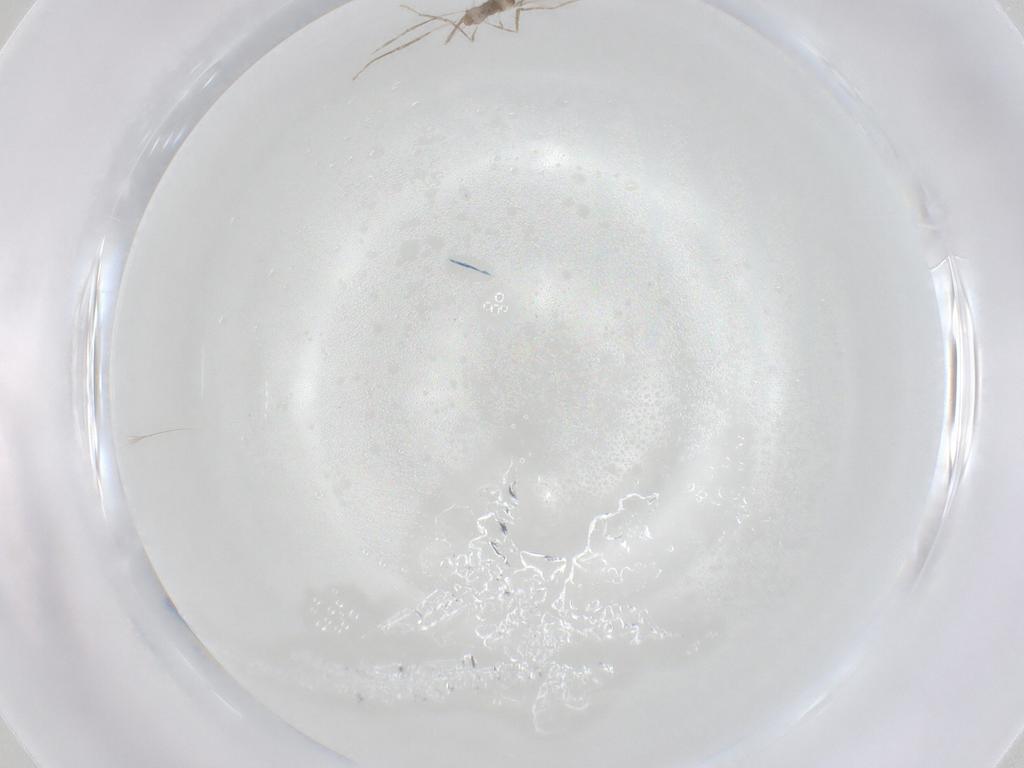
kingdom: Animalia
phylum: Arthropoda
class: Insecta
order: Diptera
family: Cecidomyiidae
